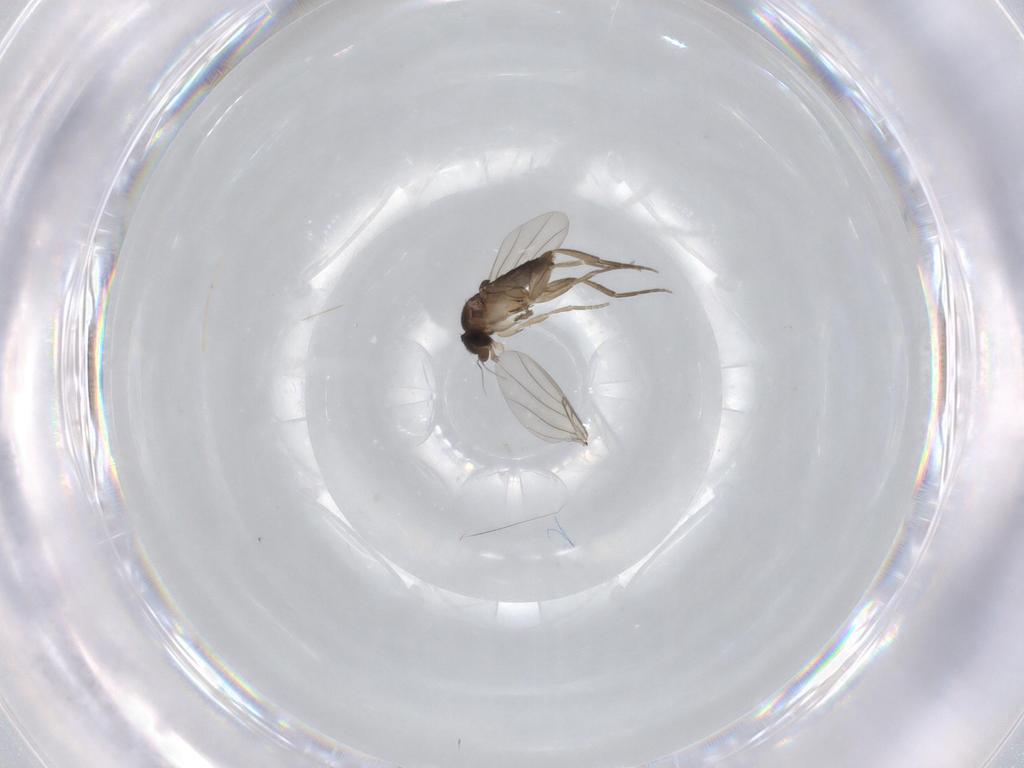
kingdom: Animalia
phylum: Arthropoda
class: Insecta
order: Diptera
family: Phoridae
